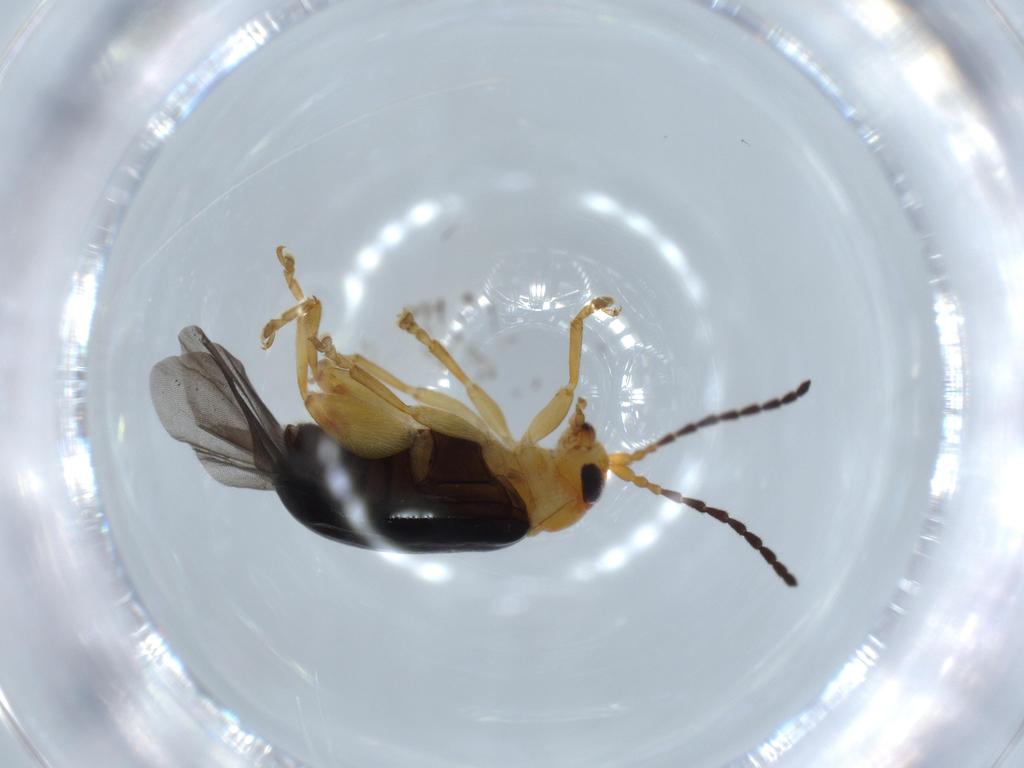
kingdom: Animalia
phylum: Arthropoda
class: Insecta
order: Coleoptera
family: Chrysomelidae
